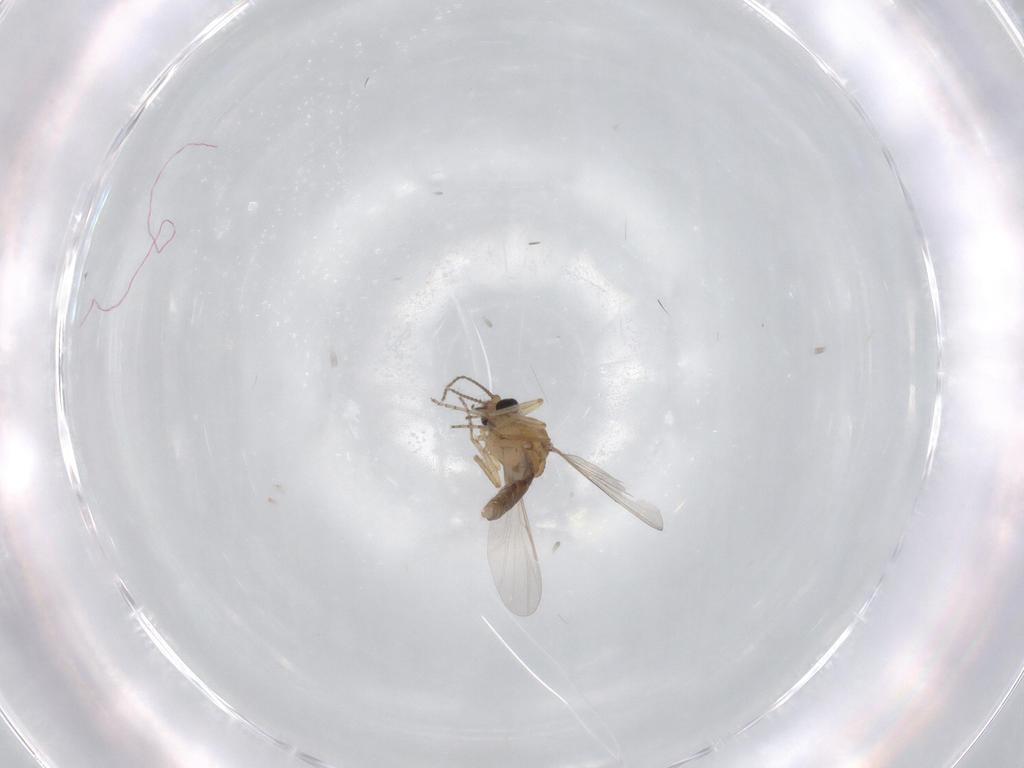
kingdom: Animalia
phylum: Arthropoda
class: Insecta
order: Diptera
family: Ceratopogonidae
